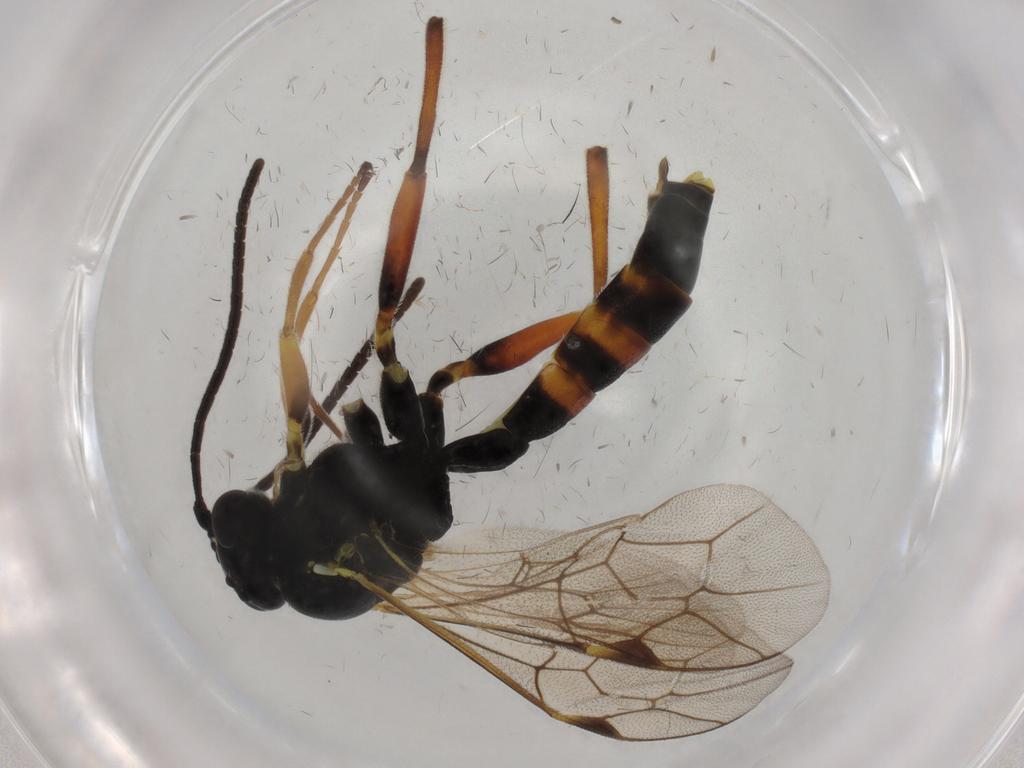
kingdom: Animalia
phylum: Arthropoda
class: Insecta
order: Hymenoptera
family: Ichneumonidae
